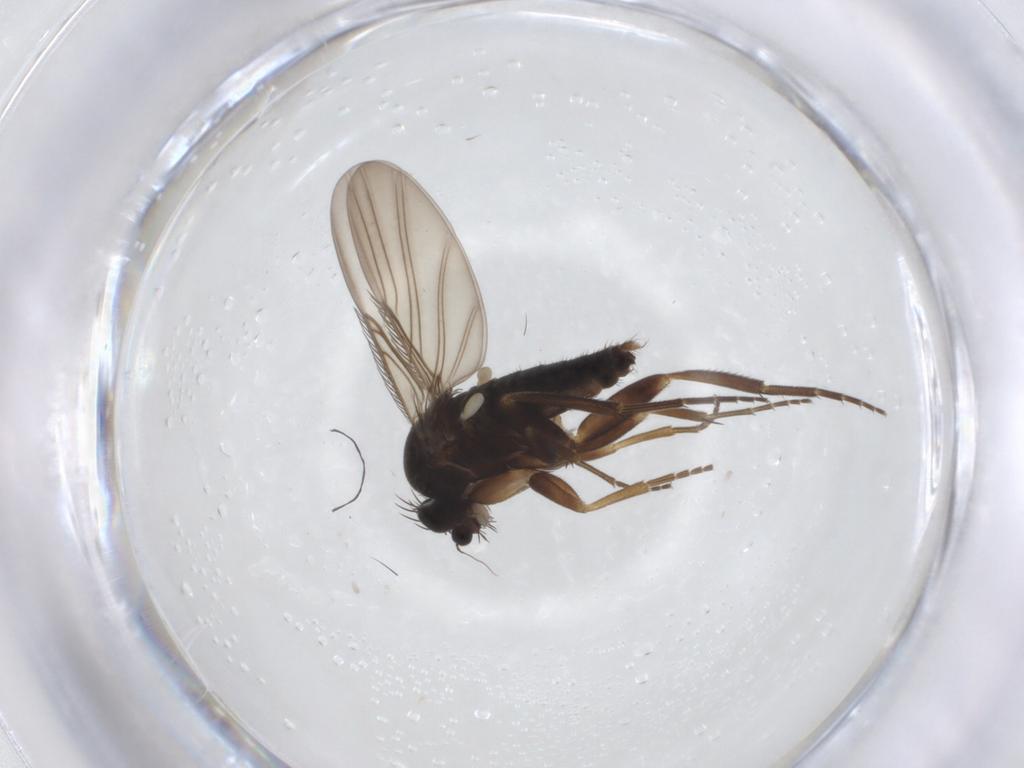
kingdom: Animalia
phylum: Arthropoda
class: Insecta
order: Diptera
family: Phoridae
